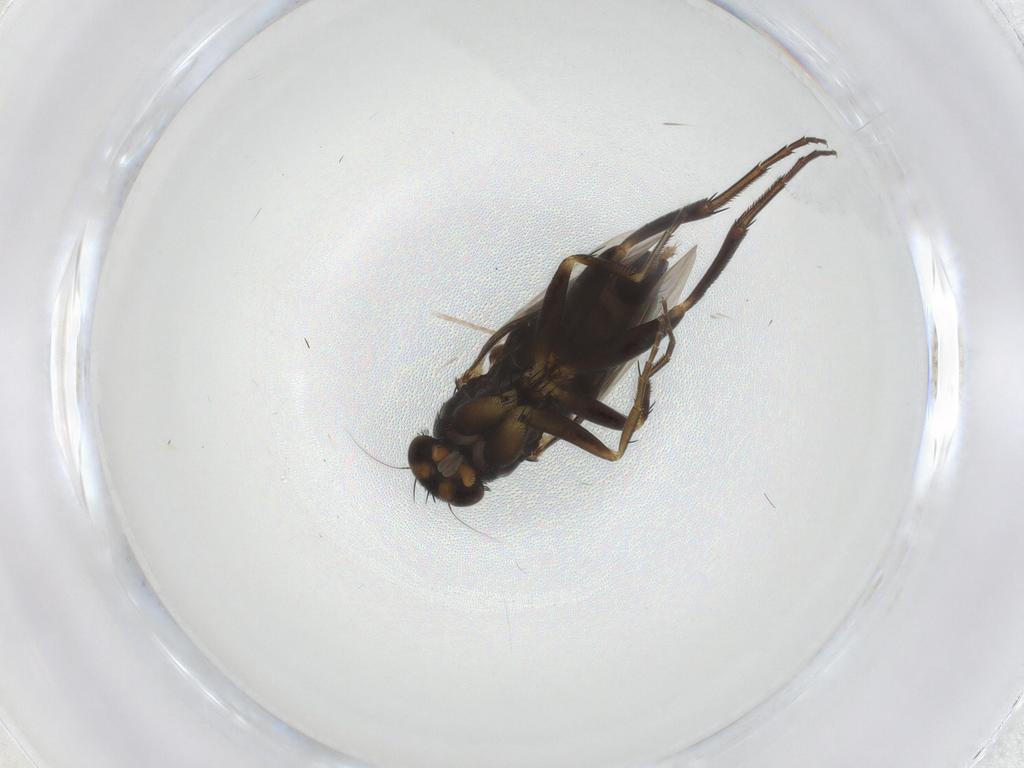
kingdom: Animalia
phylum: Arthropoda
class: Insecta
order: Diptera
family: Phoridae
